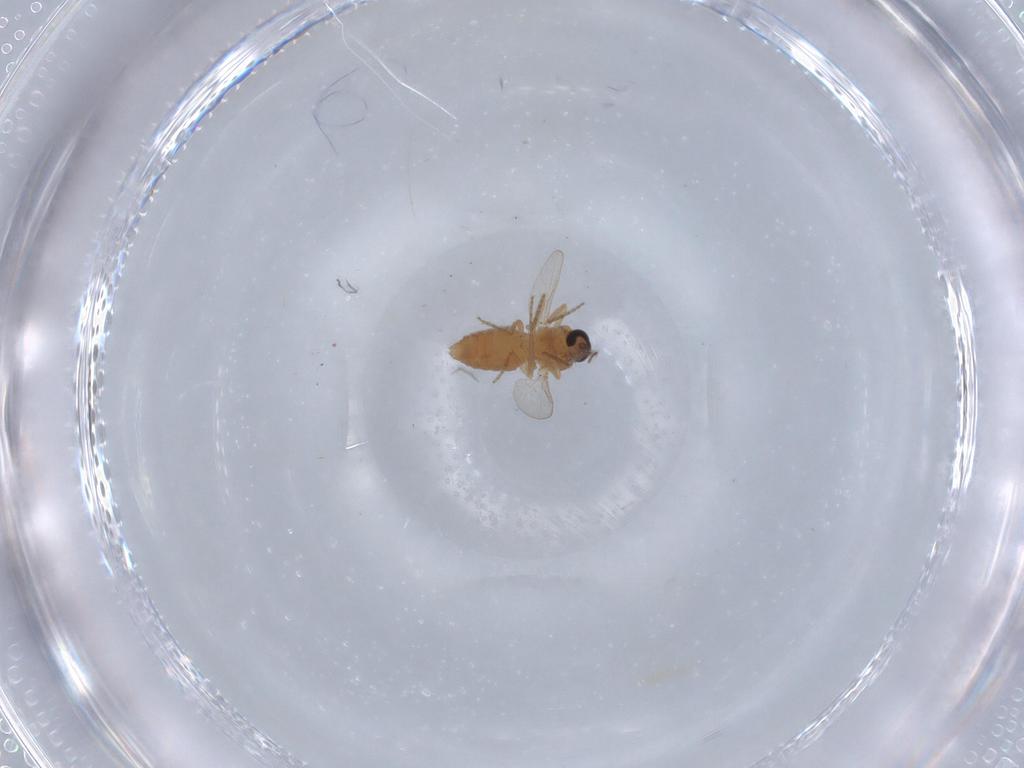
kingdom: Animalia
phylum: Arthropoda
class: Insecta
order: Diptera
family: Ceratopogonidae
